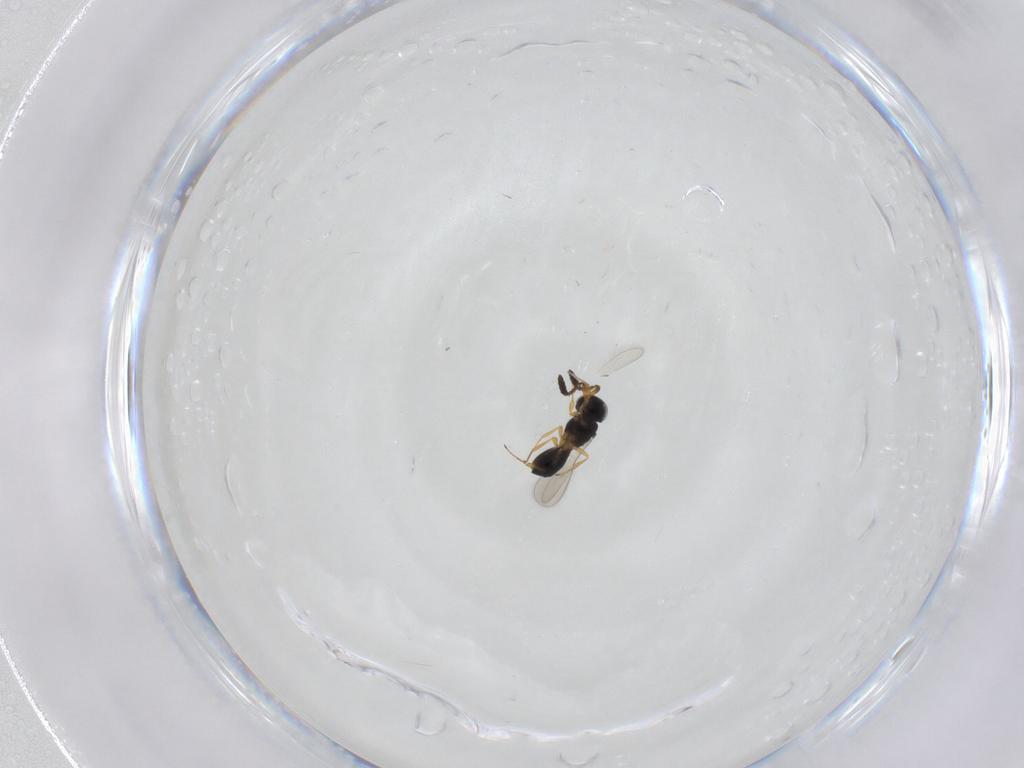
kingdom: Animalia
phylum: Arthropoda
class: Insecta
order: Hymenoptera
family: Scelionidae
